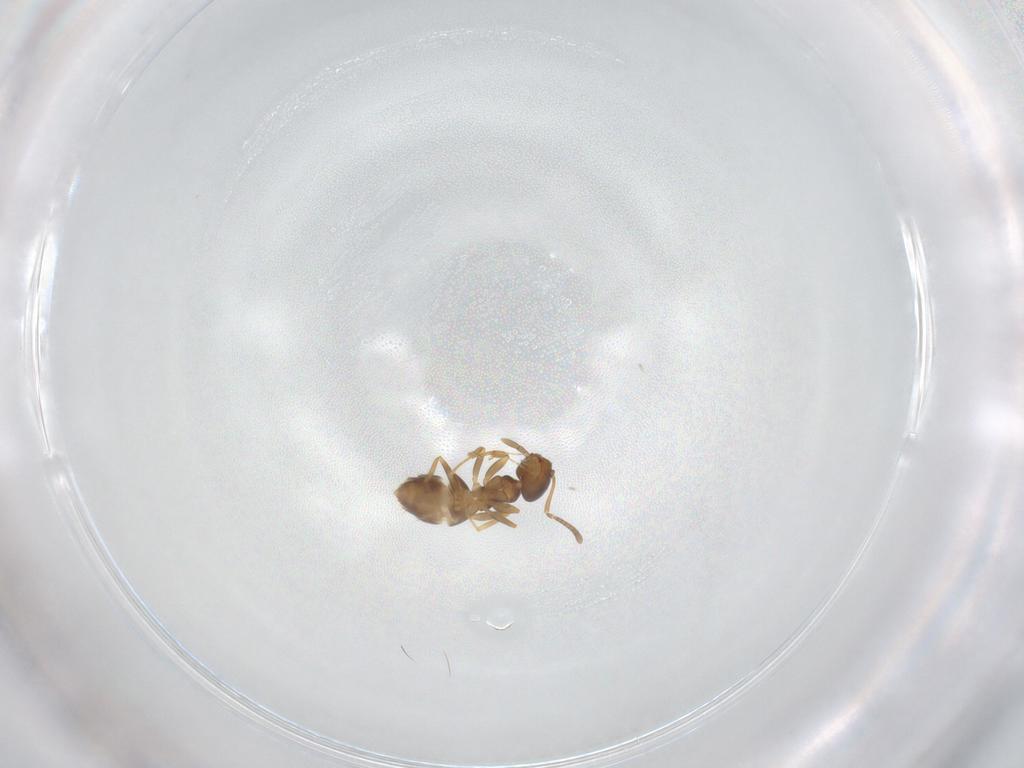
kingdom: Animalia
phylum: Arthropoda
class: Insecta
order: Hymenoptera
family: Formicidae
